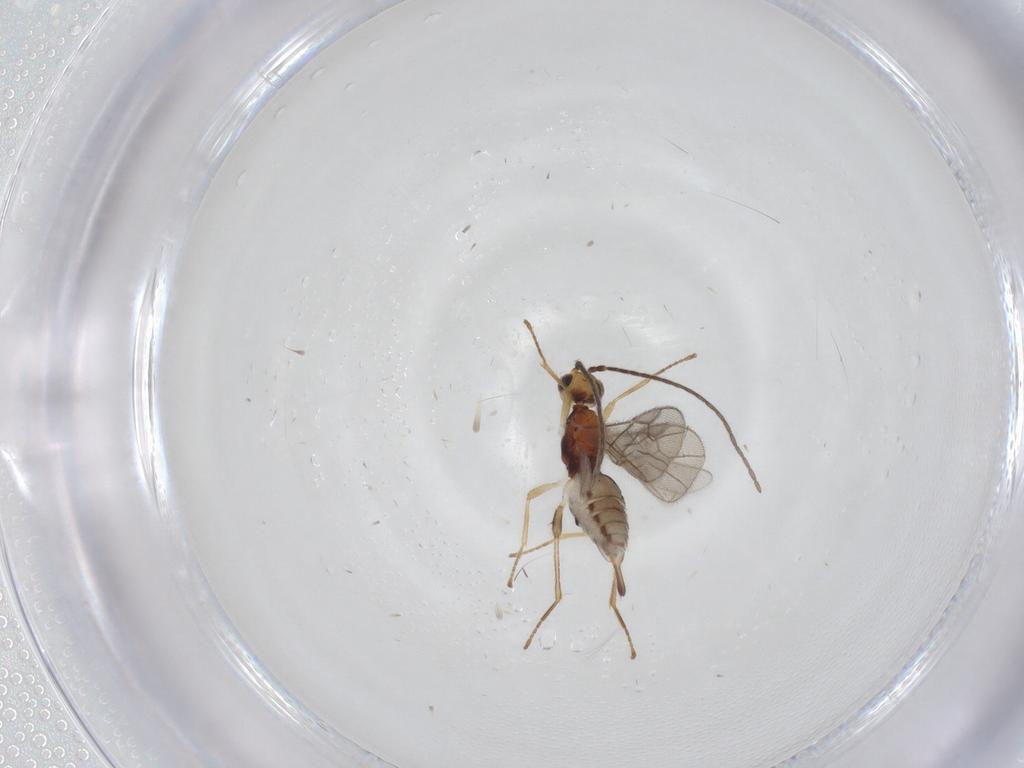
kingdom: Animalia
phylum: Arthropoda
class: Insecta
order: Hymenoptera
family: Braconidae
